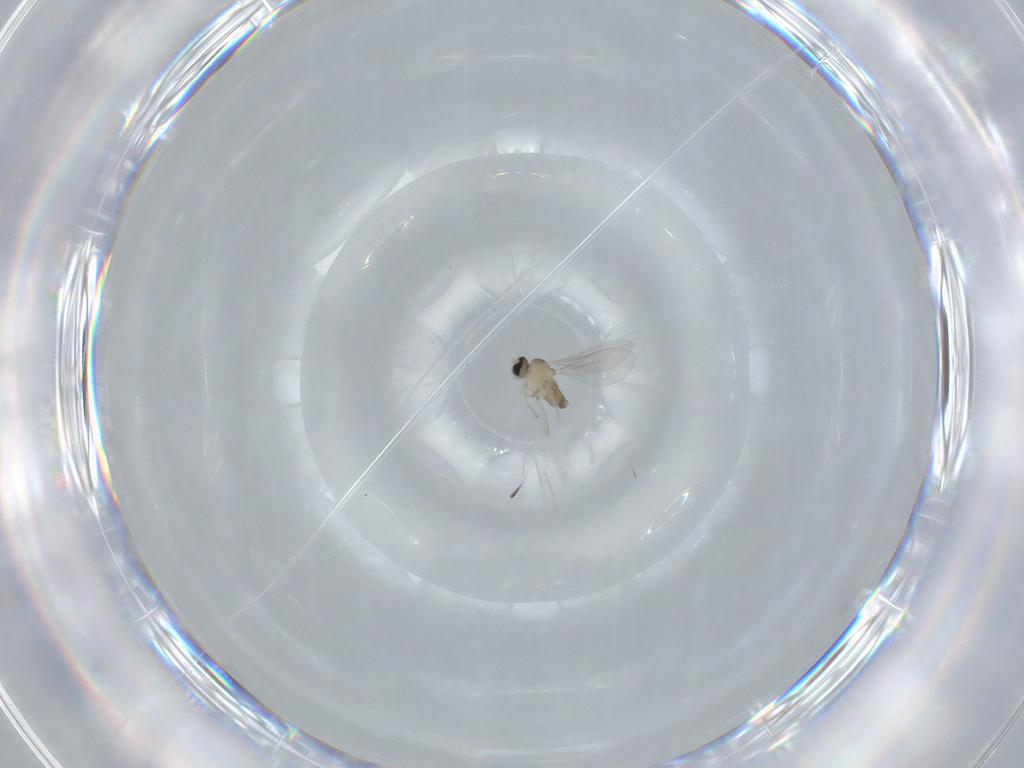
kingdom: Animalia
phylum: Arthropoda
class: Insecta
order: Diptera
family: Cecidomyiidae
